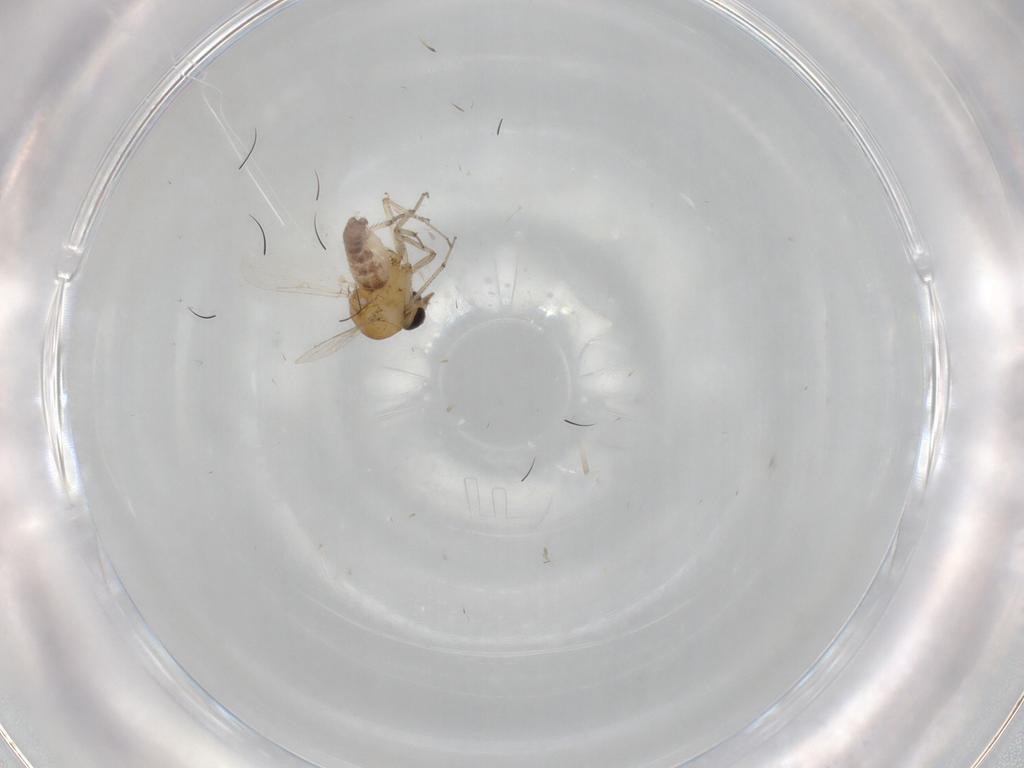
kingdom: Animalia
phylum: Arthropoda
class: Insecta
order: Diptera
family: Ceratopogonidae
